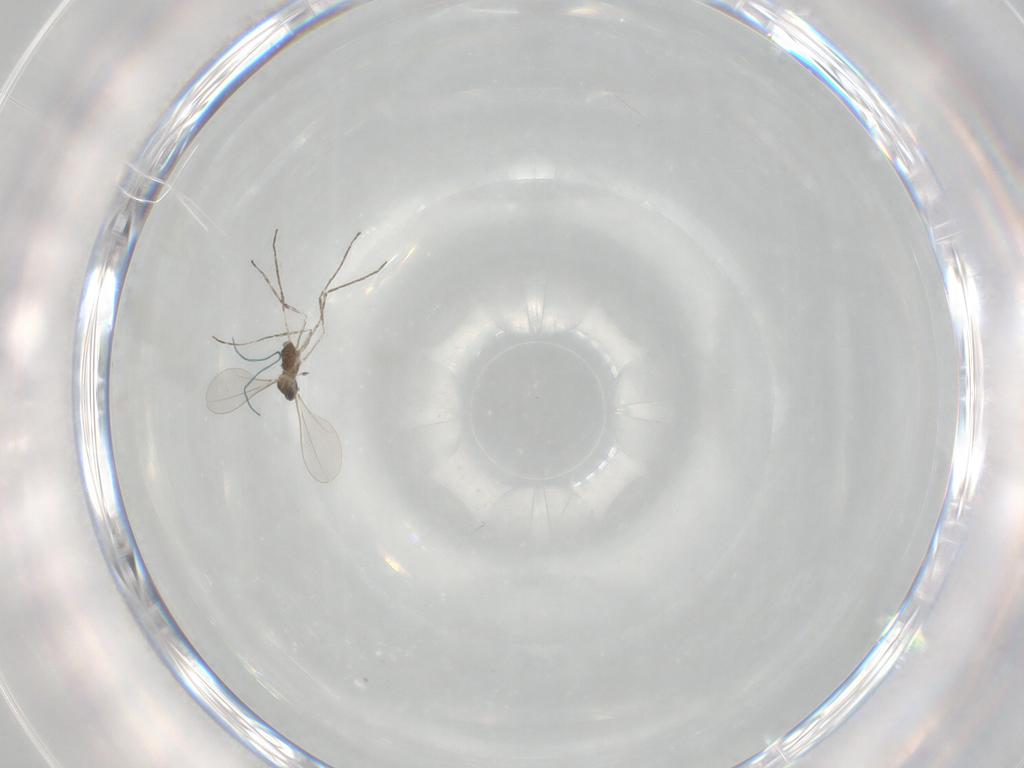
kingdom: Animalia
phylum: Arthropoda
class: Insecta
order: Diptera
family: Cecidomyiidae
